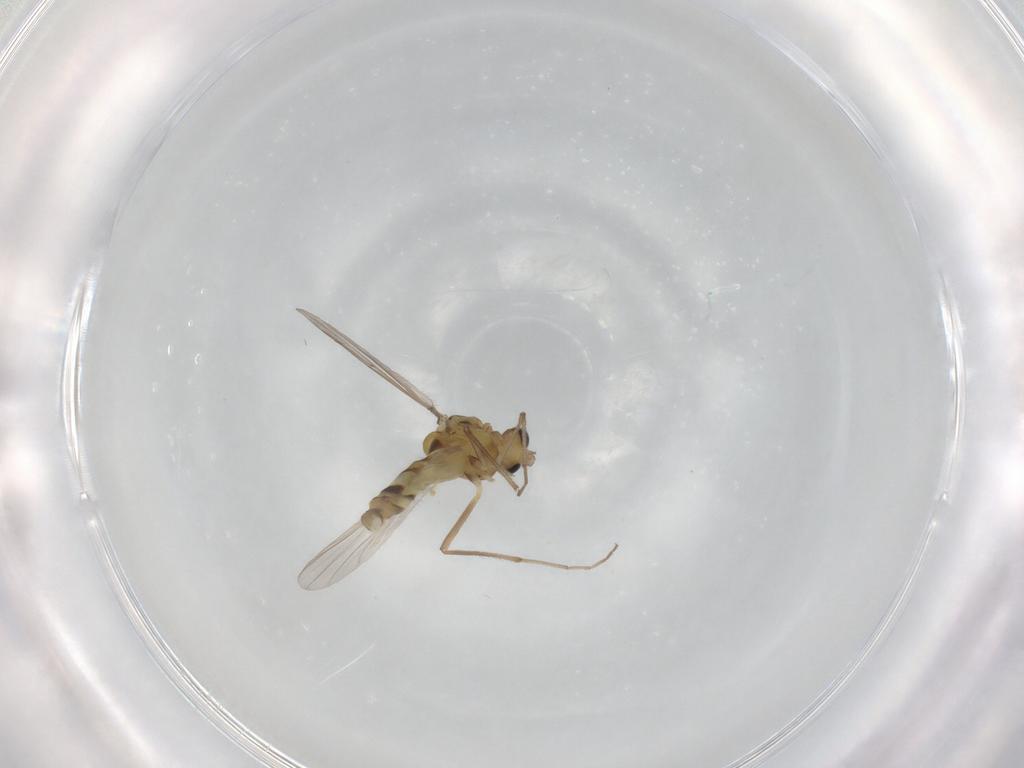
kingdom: Animalia
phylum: Arthropoda
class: Insecta
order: Diptera
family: Chironomidae
